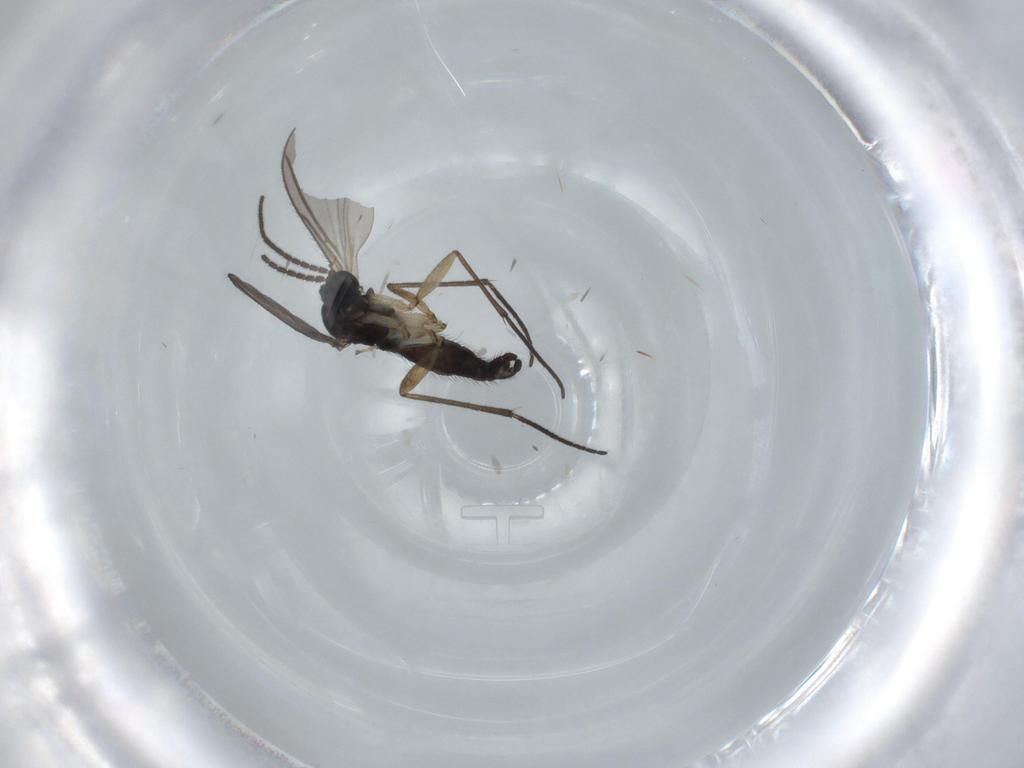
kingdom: Animalia
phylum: Arthropoda
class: Insecta
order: Diptera
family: Sciaridae
